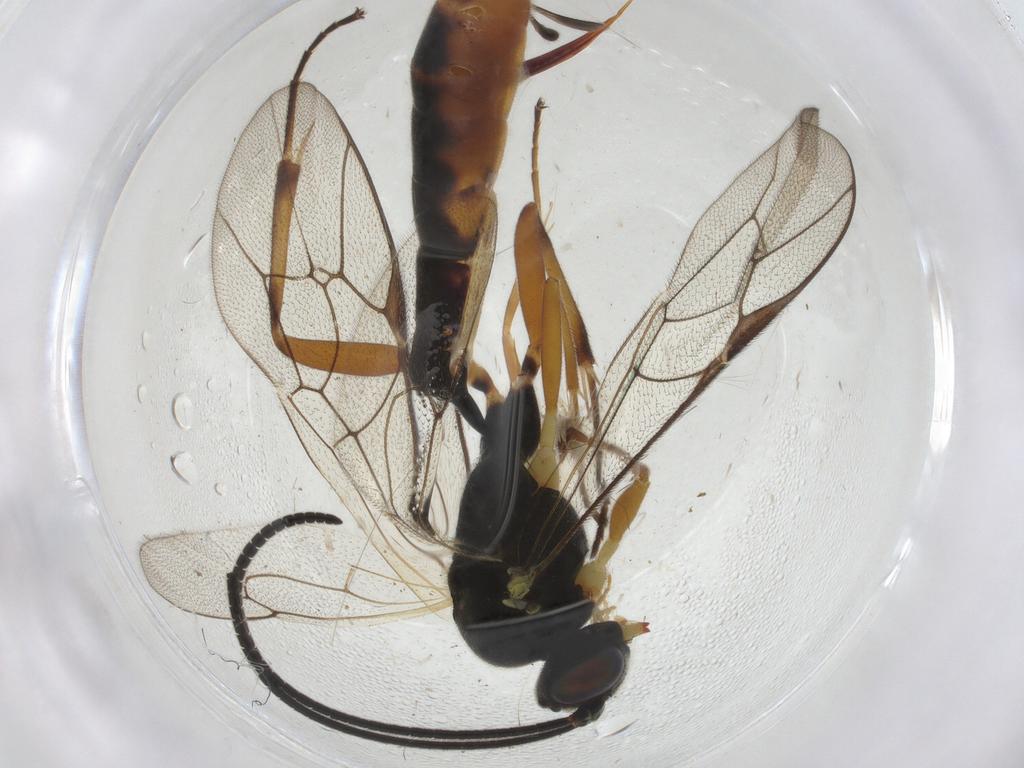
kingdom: Animalia
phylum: Arthropoda
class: Insecta
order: Hymenoptera
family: Ichneumonidae
